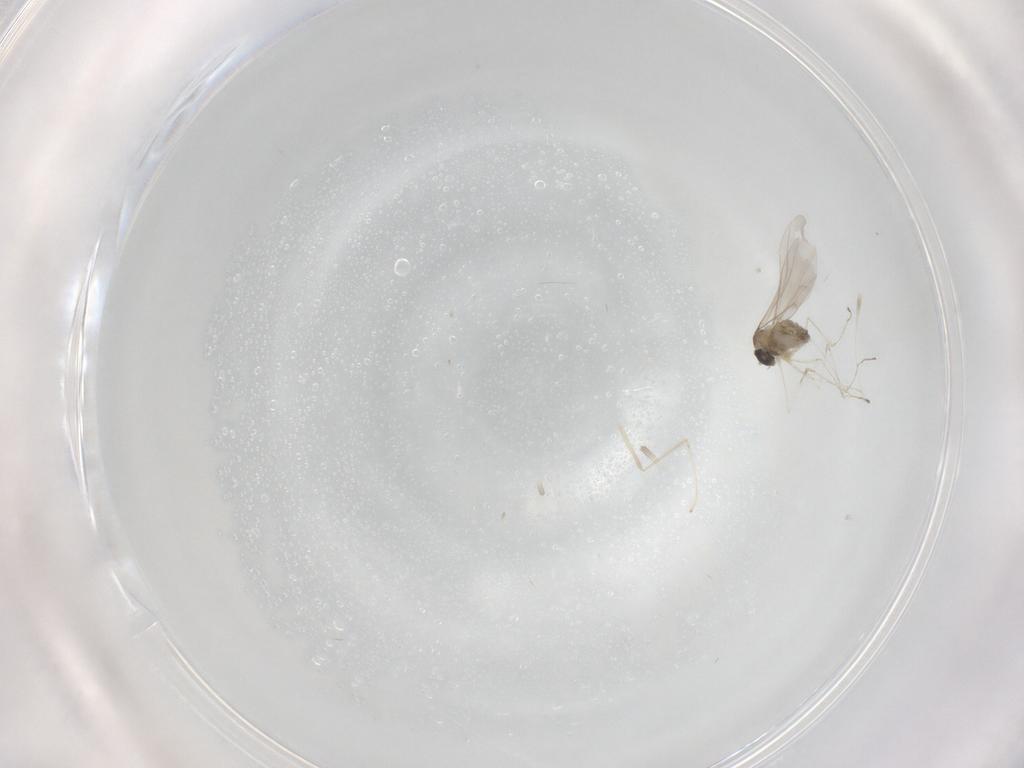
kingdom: Animalia
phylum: Arthropoda
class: Insecta
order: Diptera
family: Cecidomyiidae
